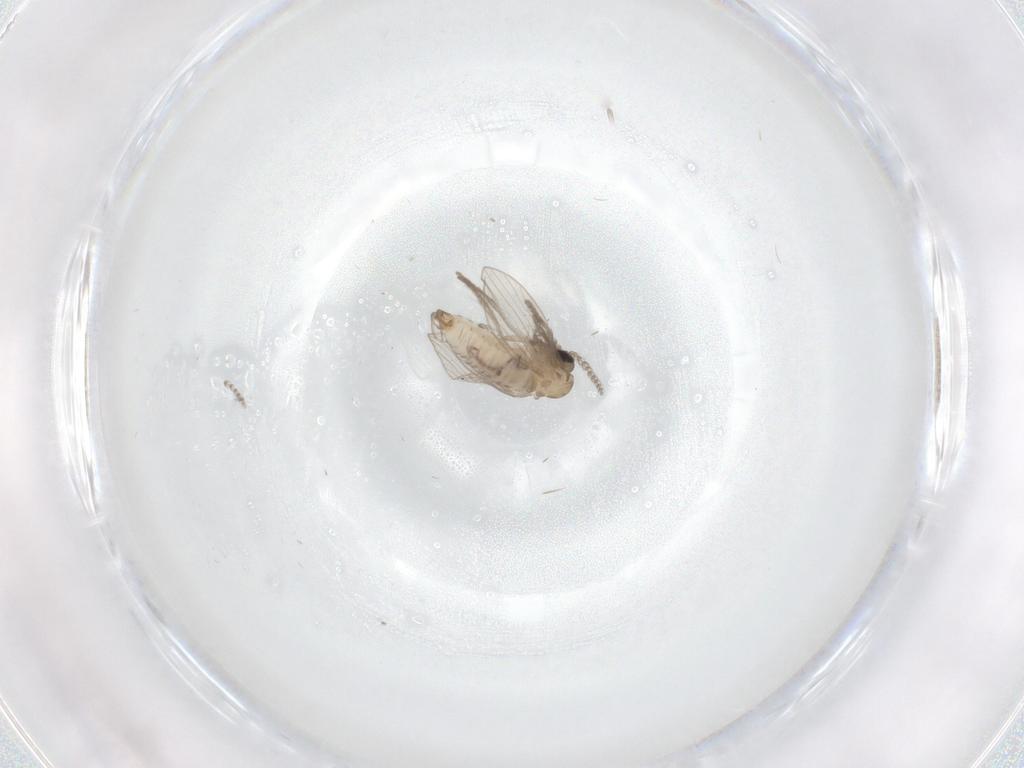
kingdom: Animalia
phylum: Arthropoda
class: Insecta
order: Diptera
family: Psychodidae
